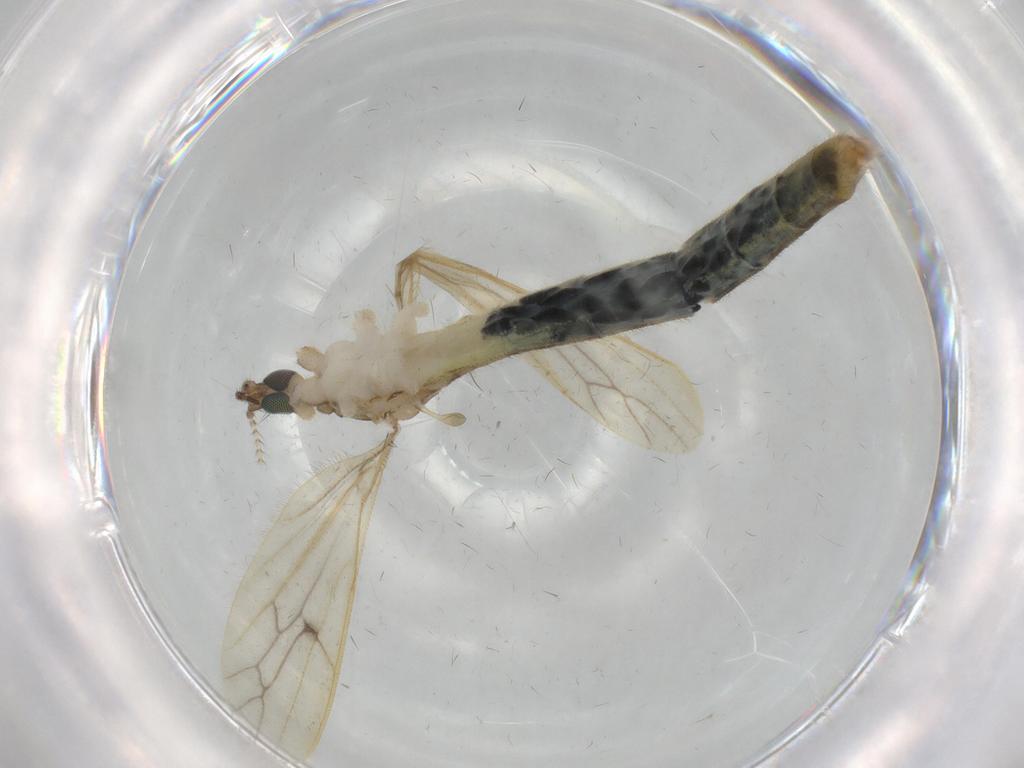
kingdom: Animalia
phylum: Arthropoda
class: Insecta
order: Diptera
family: Limoniidae
